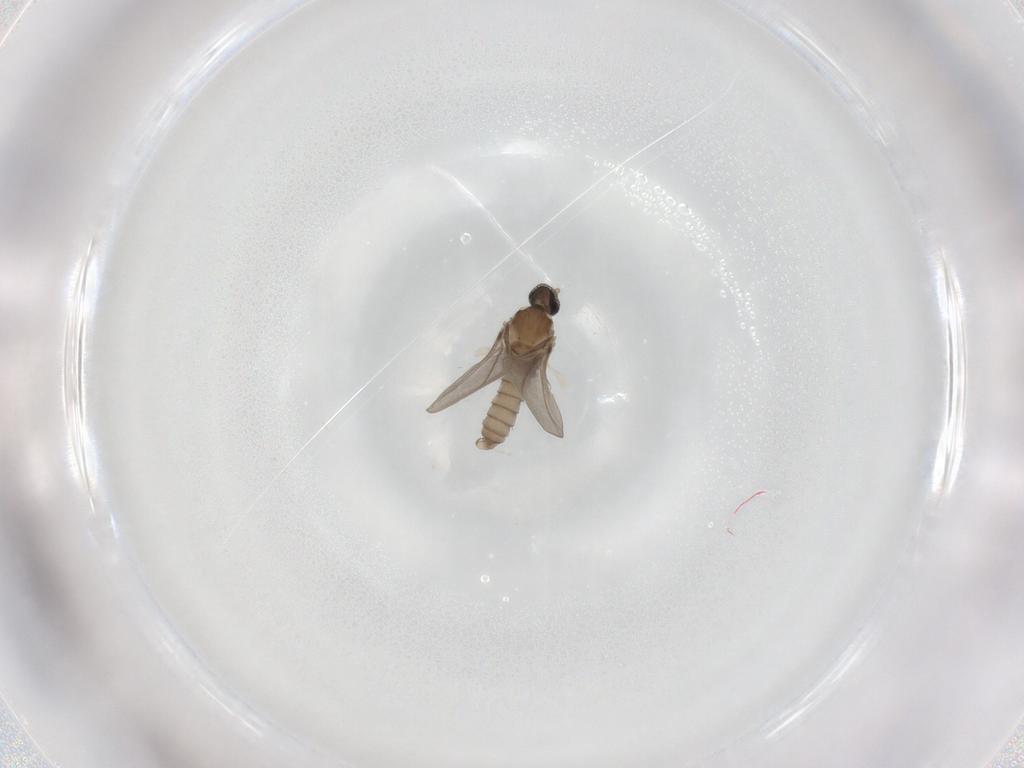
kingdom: Animalia
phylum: Arthropoda
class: Insecta
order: Diptera
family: Cecidomyiidae
